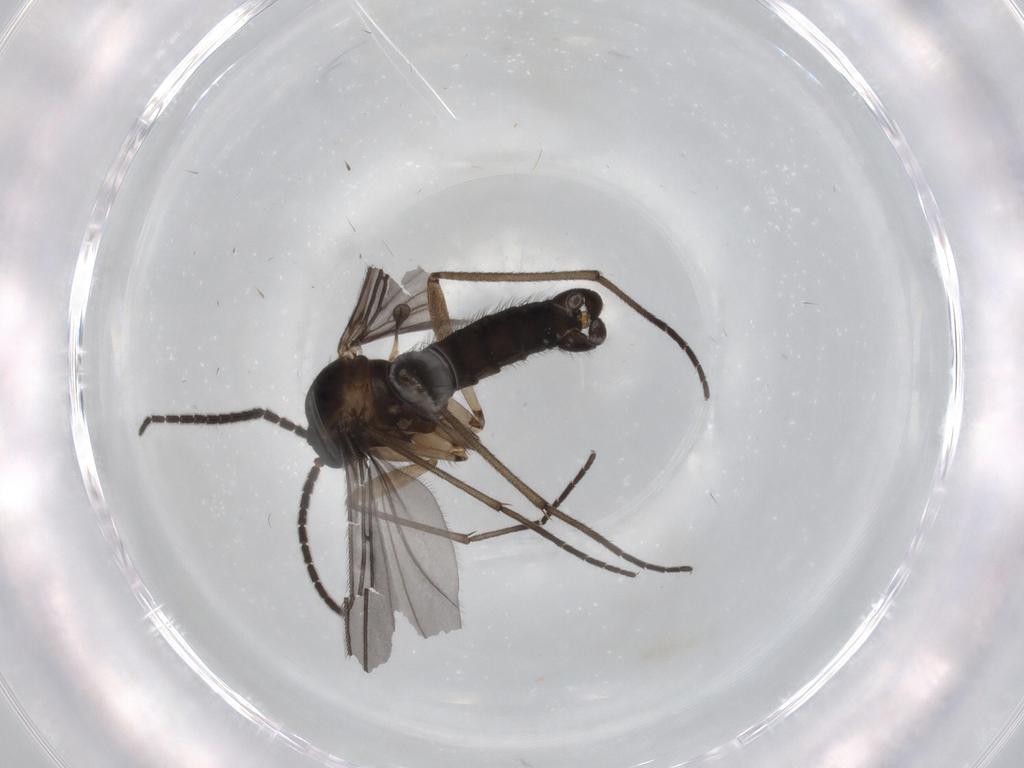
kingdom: Animalia
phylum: Arthropoda
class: Insecta
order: Diptera
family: Sciaridae
